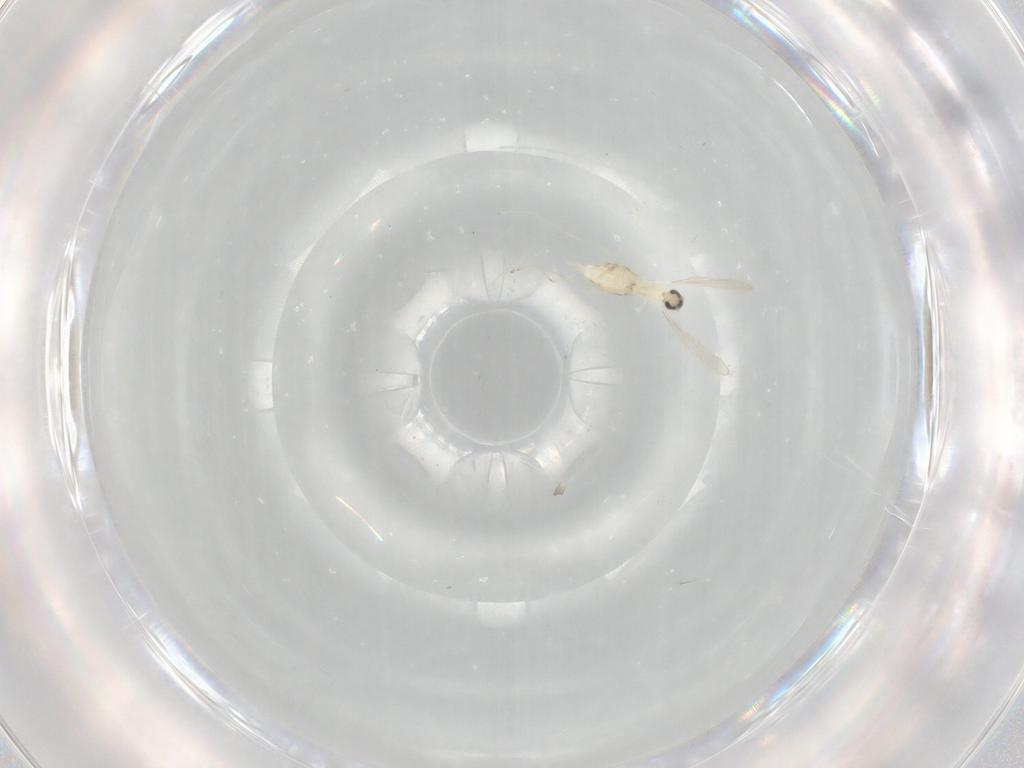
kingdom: Animalia
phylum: Arthropoda
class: Insecta
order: Diptera
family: Cecidomyiidae
